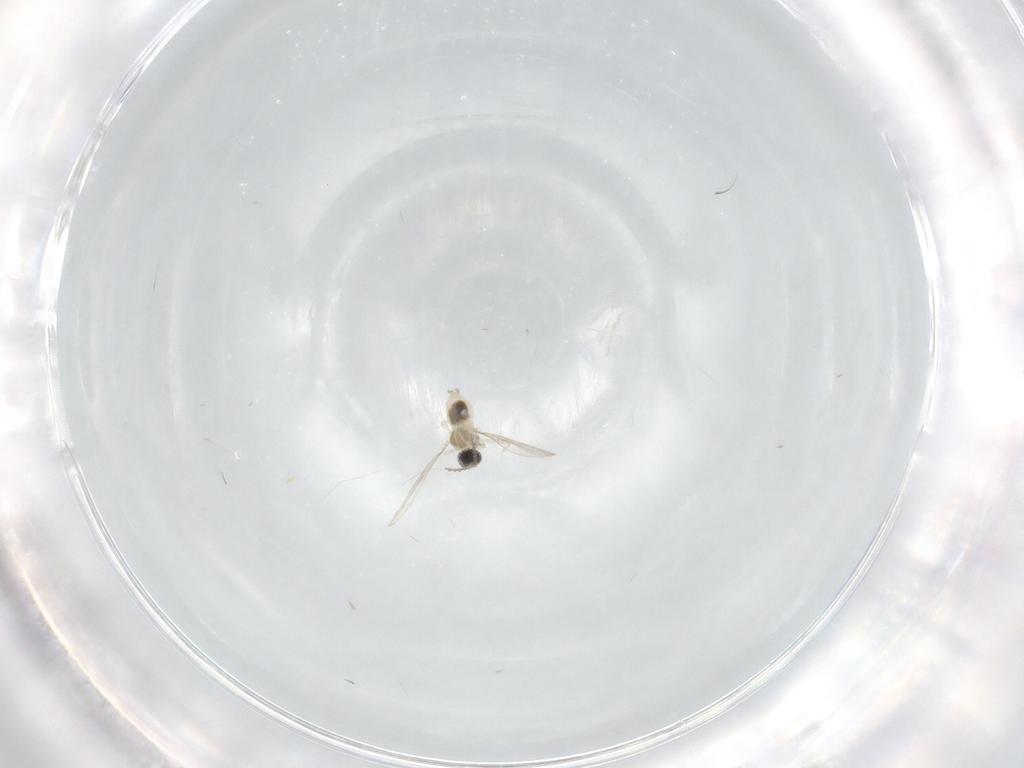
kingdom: Animalia
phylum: Arthropoda
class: Insecta
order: Diptera
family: Cecidomyiidae
